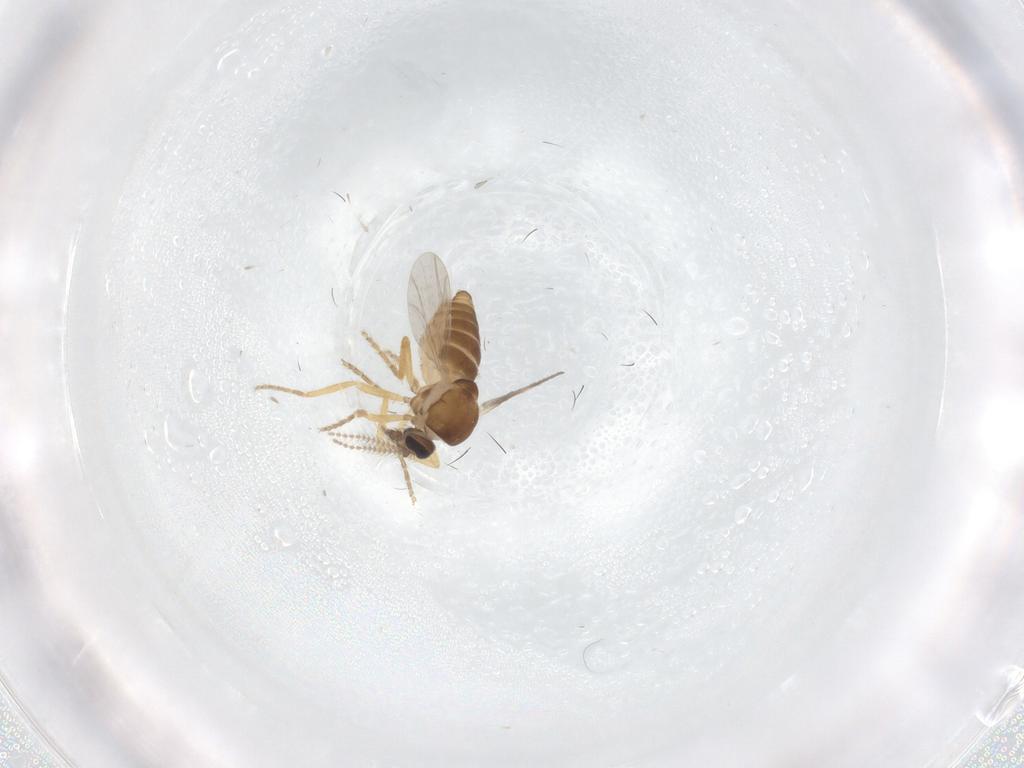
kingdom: Animalia
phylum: Arthropoda
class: Insecta
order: Diptera
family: Ceratopogonidae
